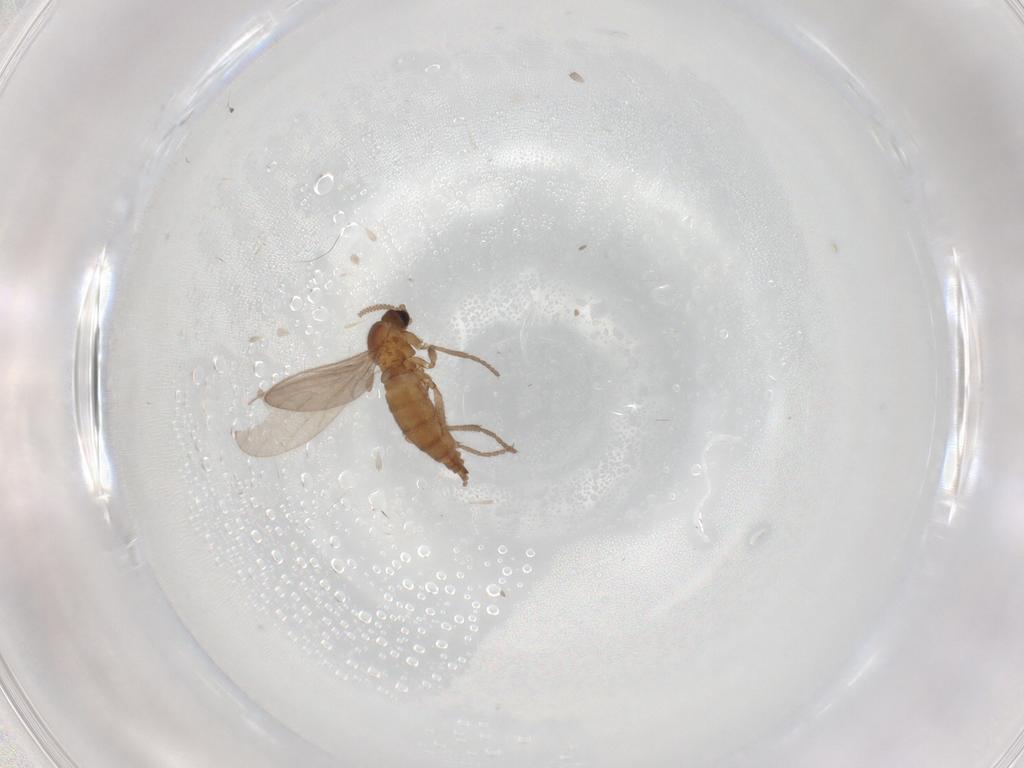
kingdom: Animalia
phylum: Arthropoda
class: Insecta
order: Diptera
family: Sciaridae
